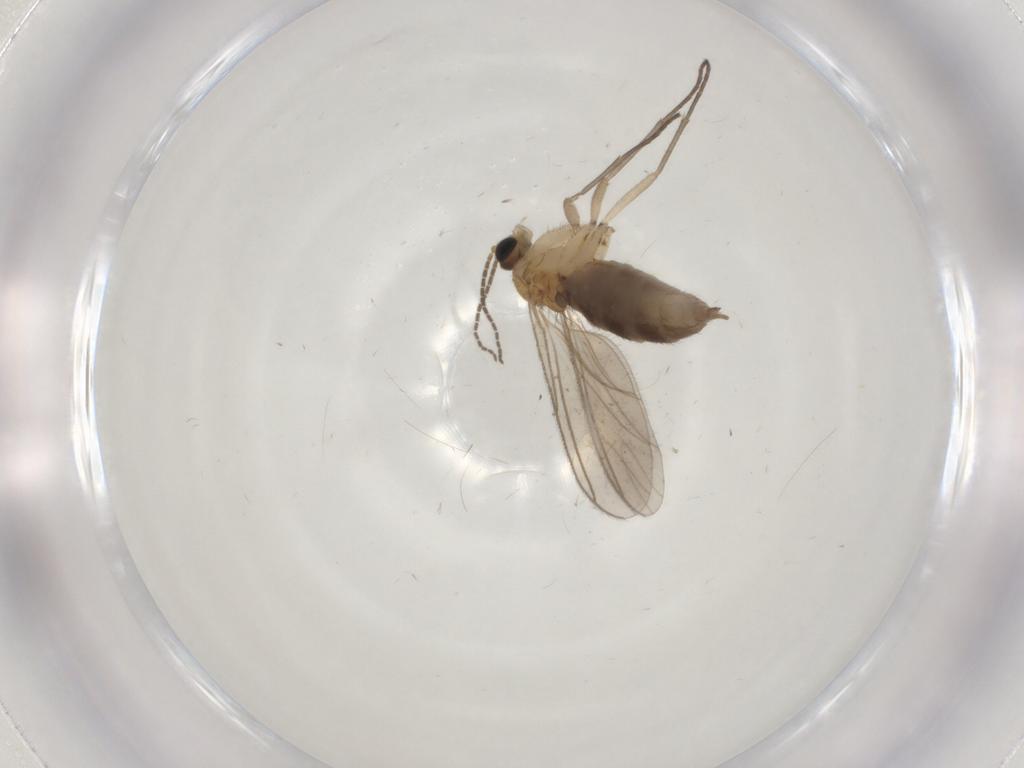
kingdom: Animalia
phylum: Arthropoda
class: Insecta
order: Diptera
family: Sciaridae
